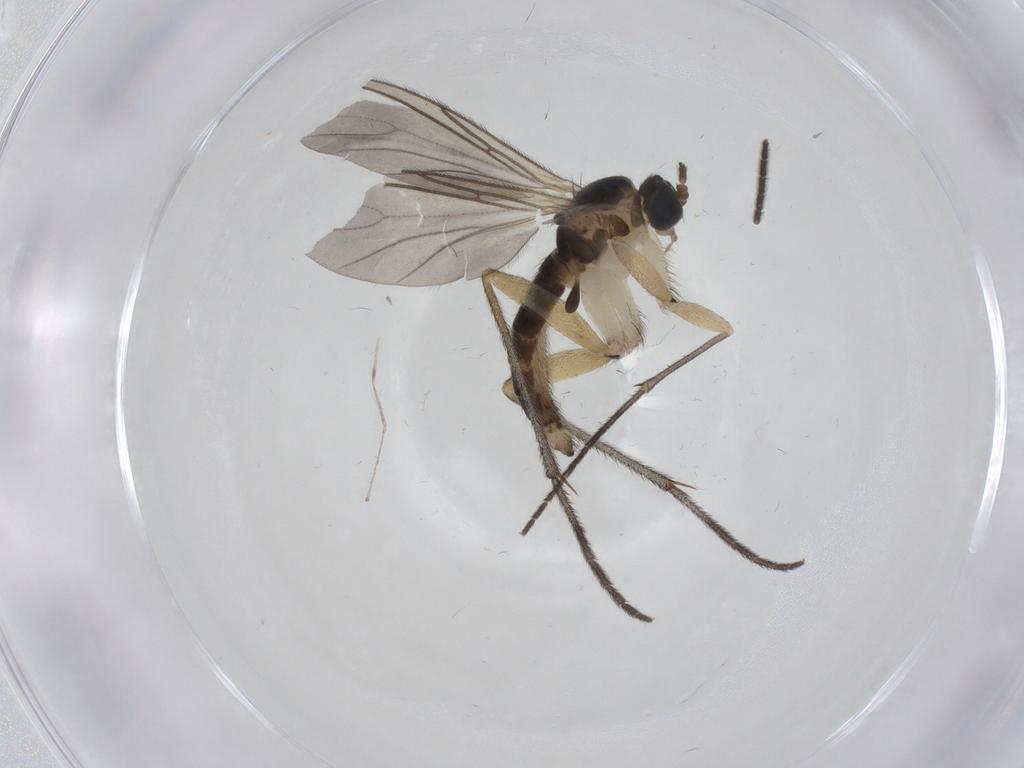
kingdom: Animalia
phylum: Arthropoda
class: Insecta
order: Diptera
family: Sciaridae
